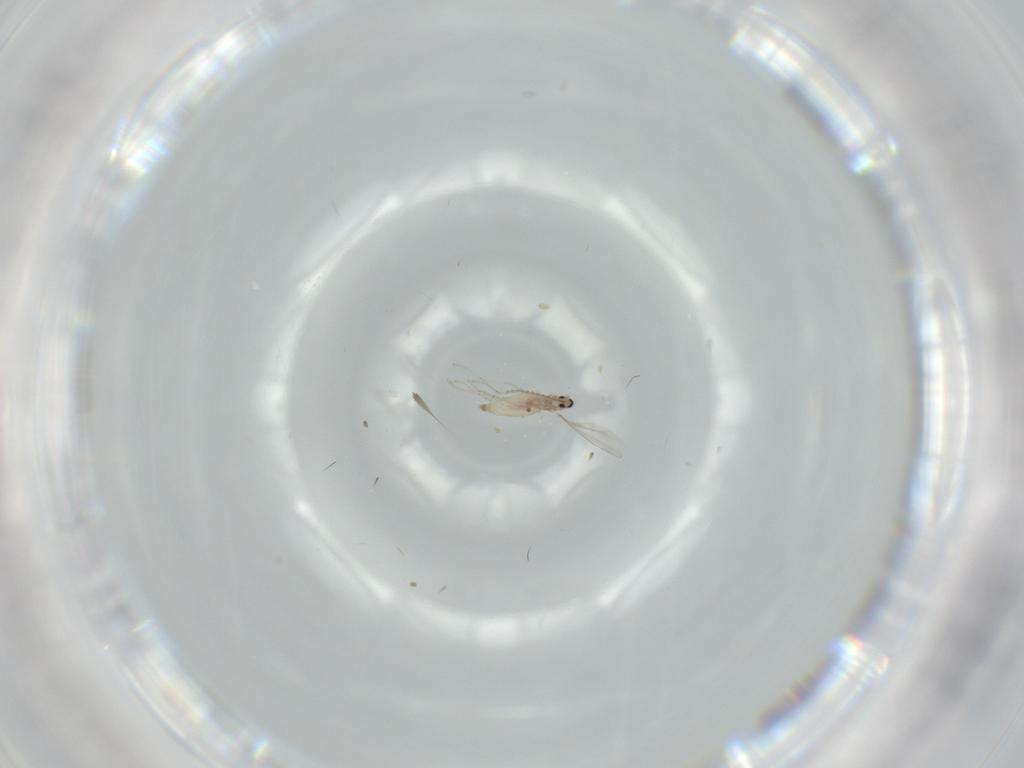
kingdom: Animalia
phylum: Arthropoda
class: Insecta
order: Diptera
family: Cecidomyiidae
